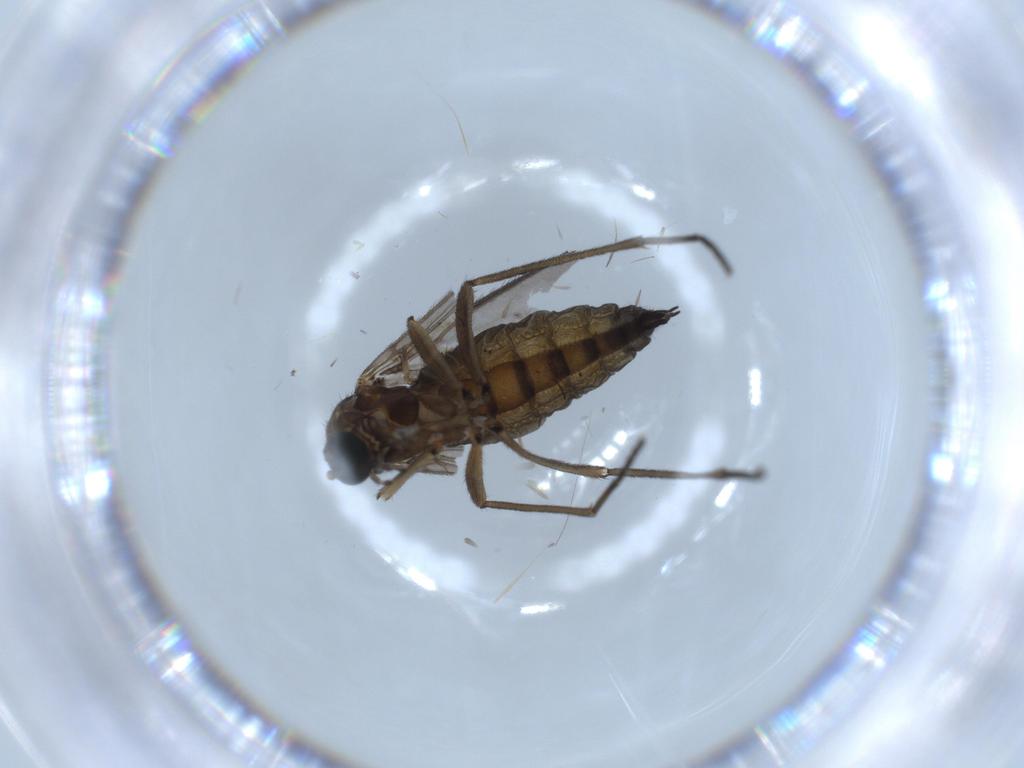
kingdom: Animalia
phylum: Arthropoda
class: Insecta
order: Diptera
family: Sciaridae
